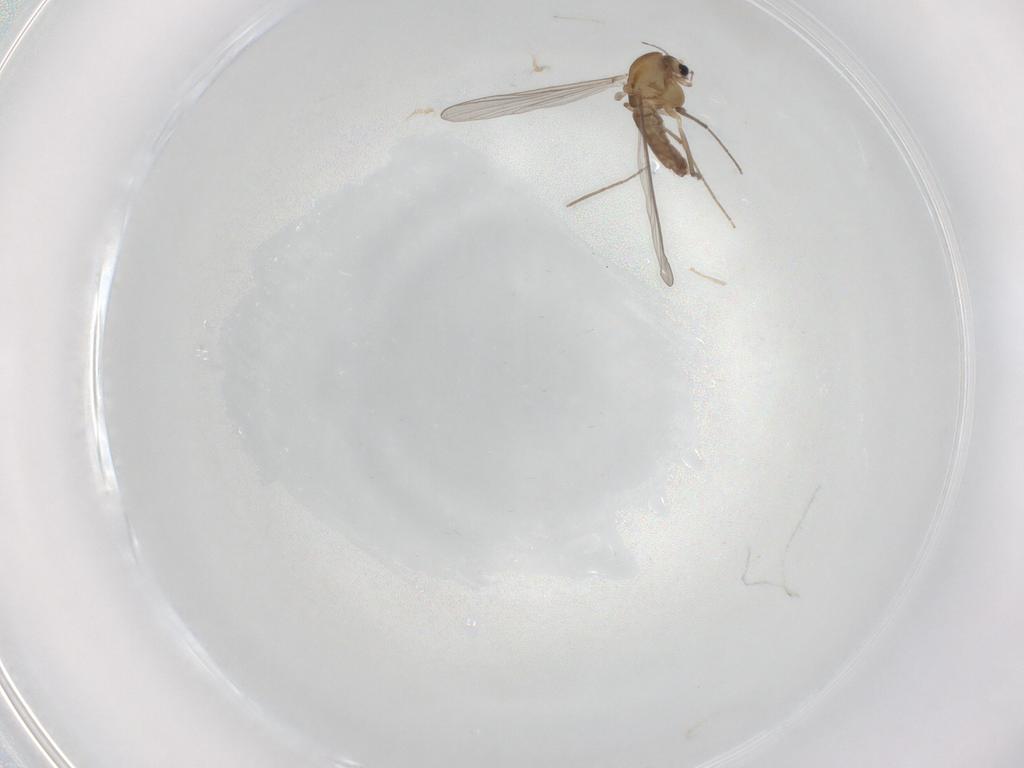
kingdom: Animalia
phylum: Arthropoda
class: Insecta
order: Diptera
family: Chironomidae
